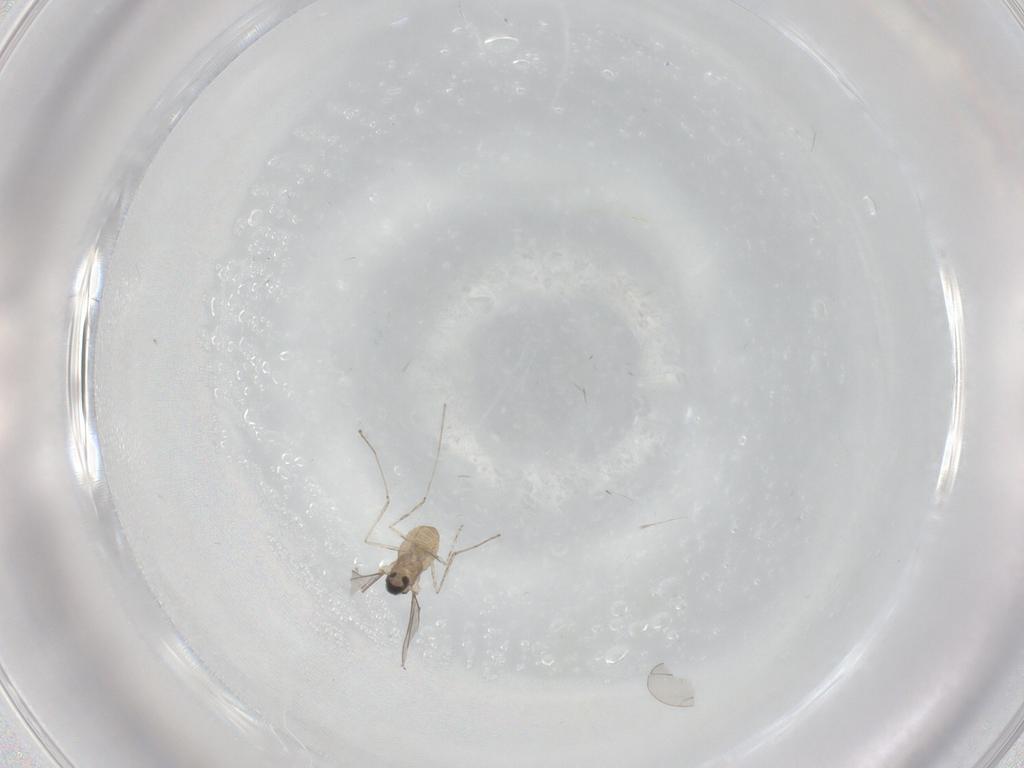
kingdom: Animalia
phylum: Arthropoda
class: Insecta
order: Diptera
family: Cecidomyiidae
